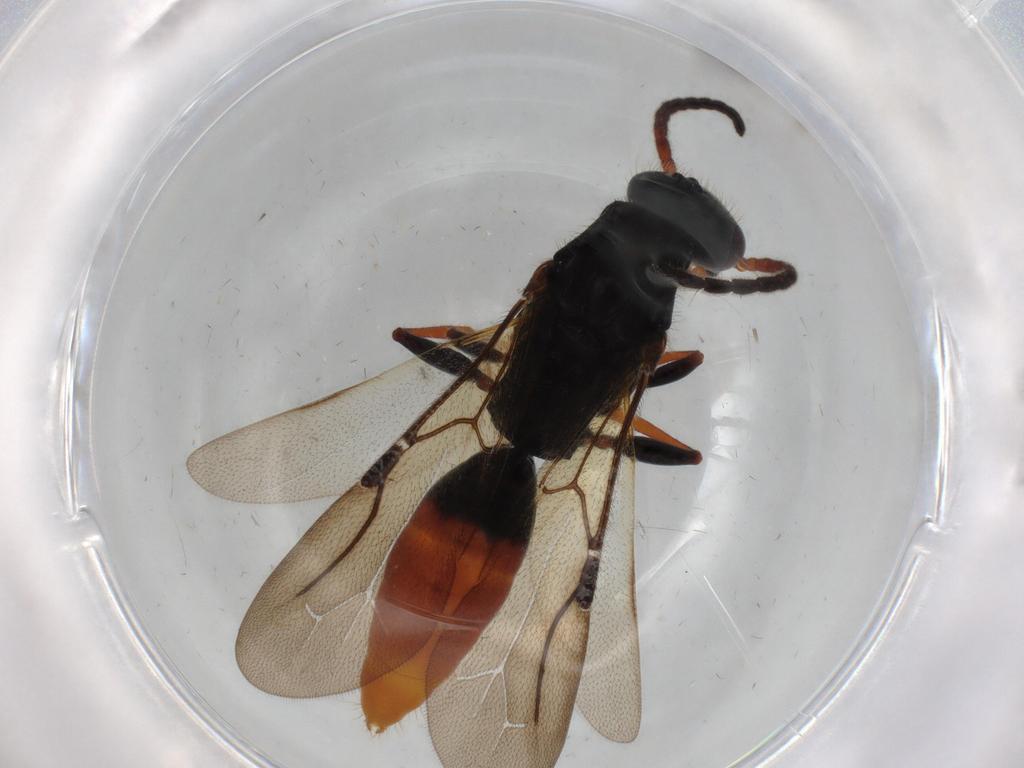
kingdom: Animalia
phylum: Arthropoda
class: Insecta
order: Hymenoptera
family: Bethylidae
